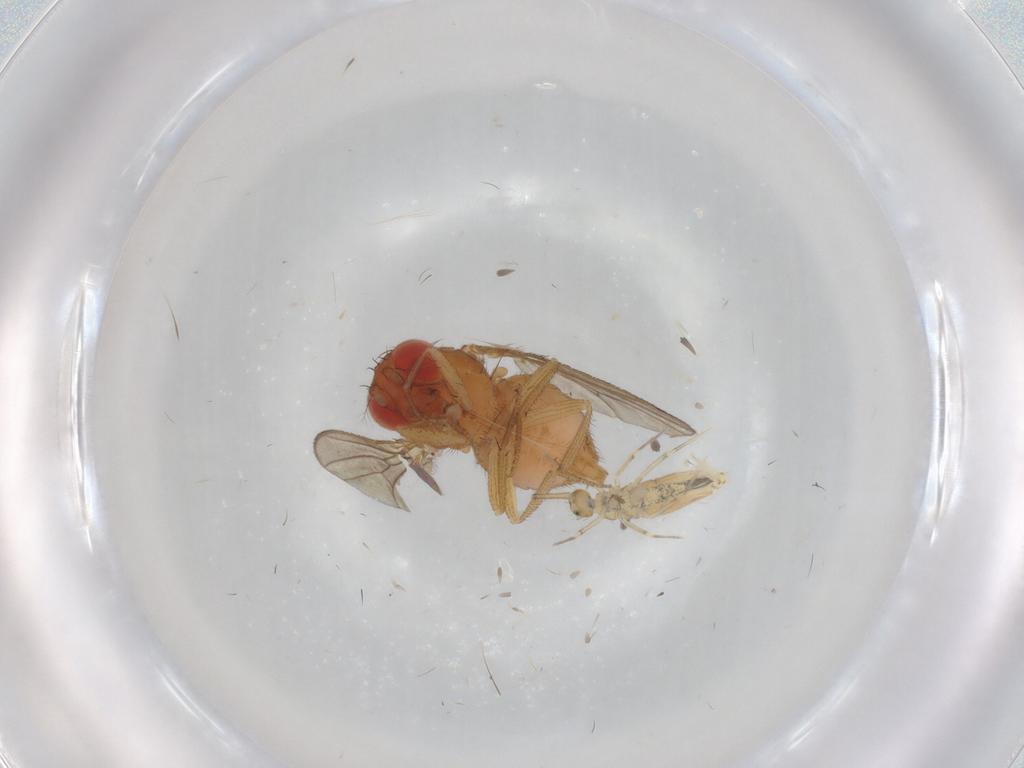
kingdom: Animalia
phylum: Arthropoda
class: Insecta
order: Diptera
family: Drosophilidae
